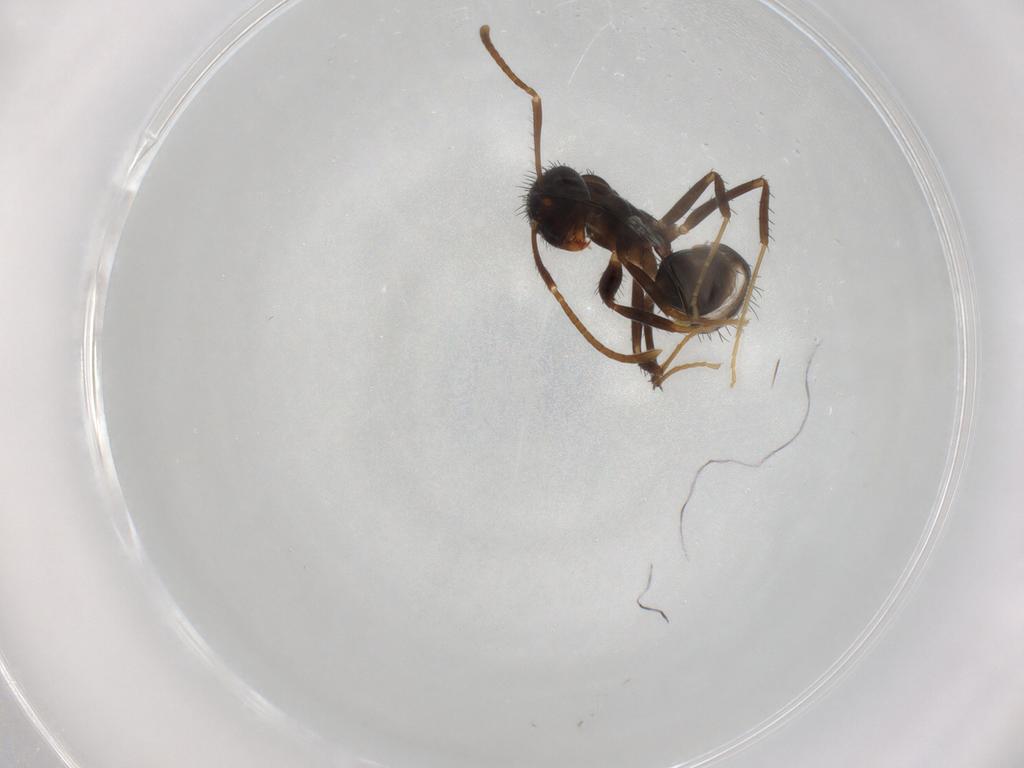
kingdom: Animalia
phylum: Arthropoda
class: Insecta
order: Hymenoptera
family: Formicidae
